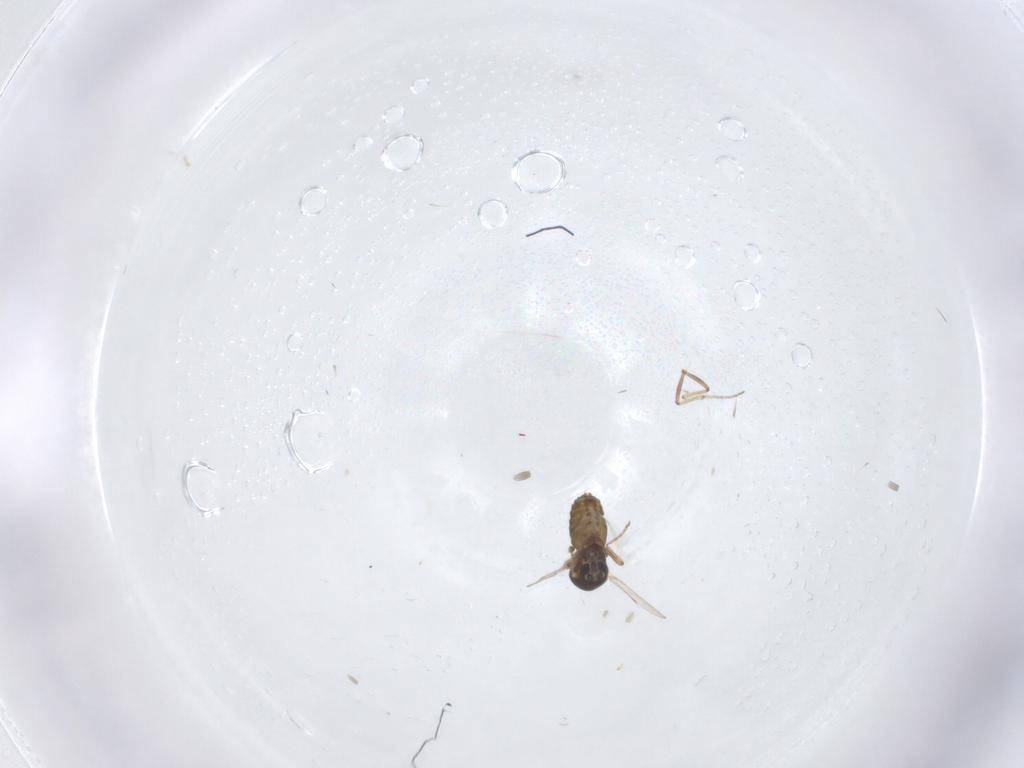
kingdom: Animalia
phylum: Arthropoda
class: Insecta
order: Diptera
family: Ceratopogonidae
